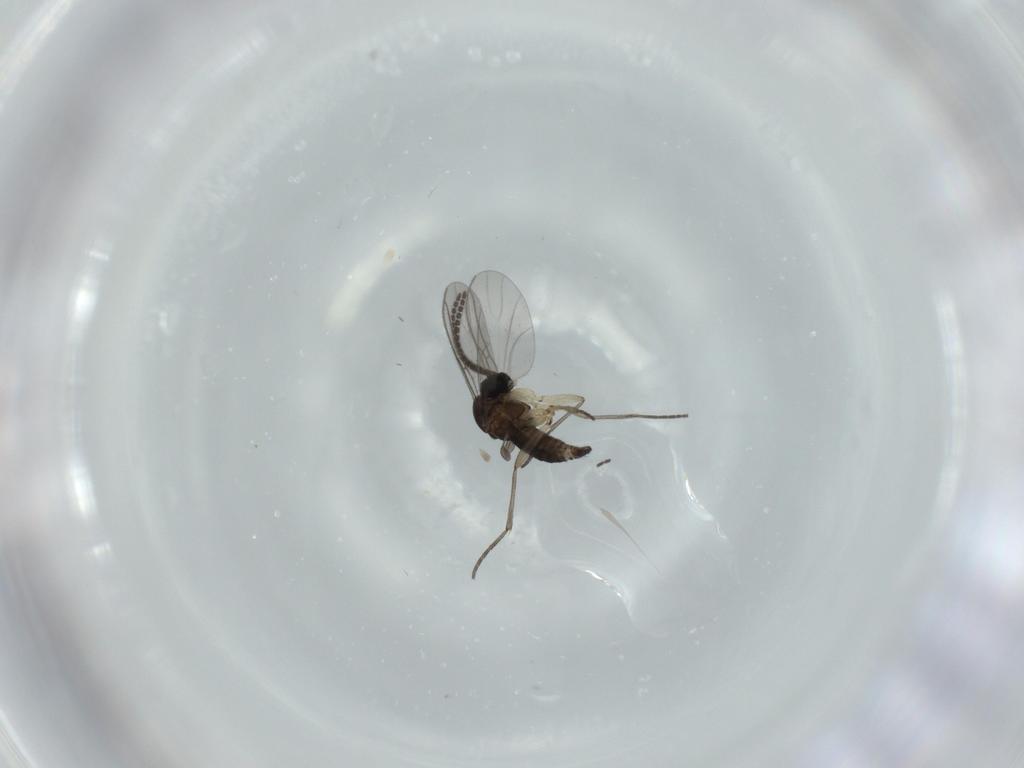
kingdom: Animalia
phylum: Arthropoda
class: Insecta
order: Diptera
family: Sciaridae
